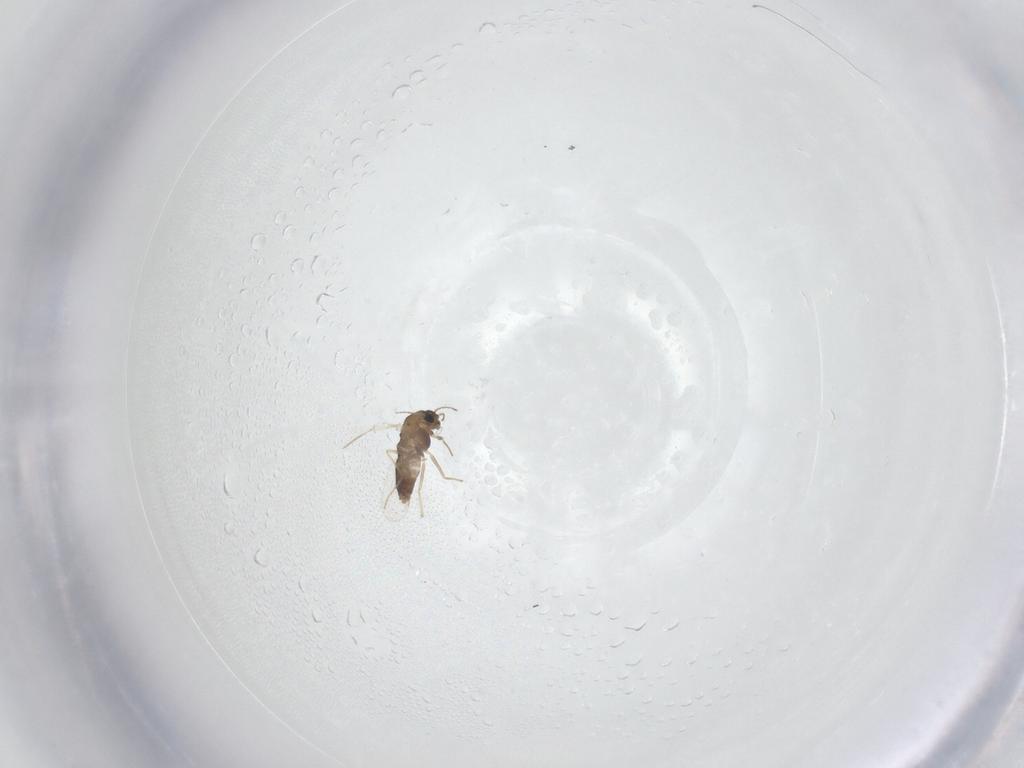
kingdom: Animalia
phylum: Arthropoda
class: Insecta
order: Diptera
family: Chironomidae
